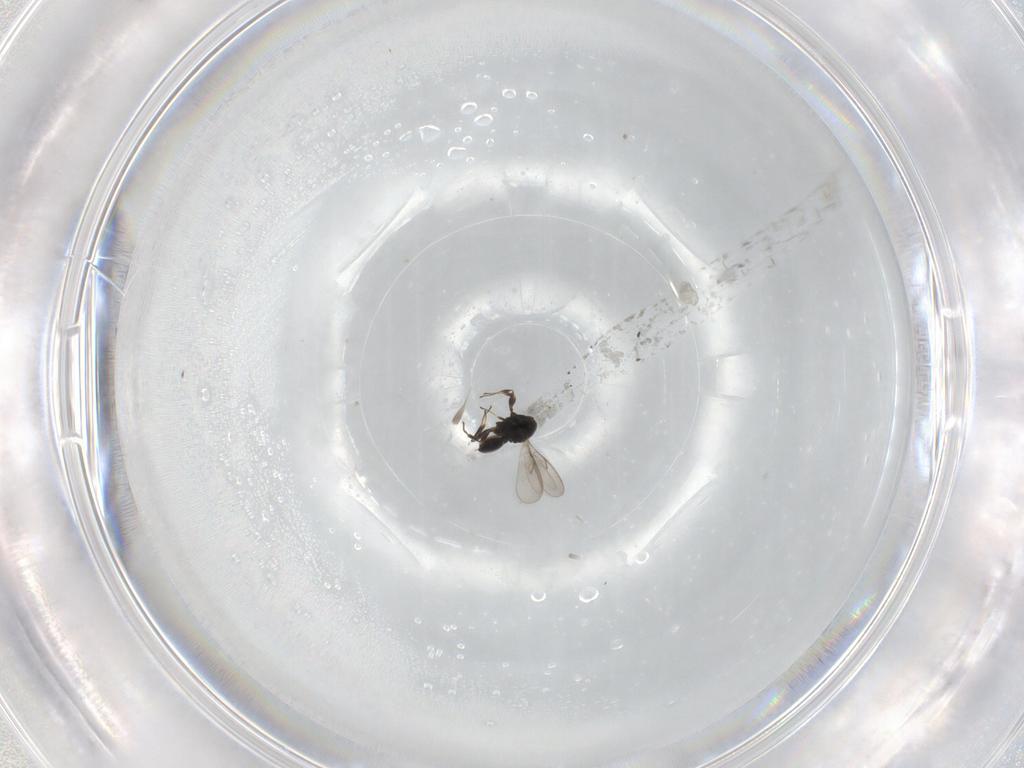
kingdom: Animalia
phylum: Arthropoda
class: Insecta
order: Hymenoptera
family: Scelionidae
